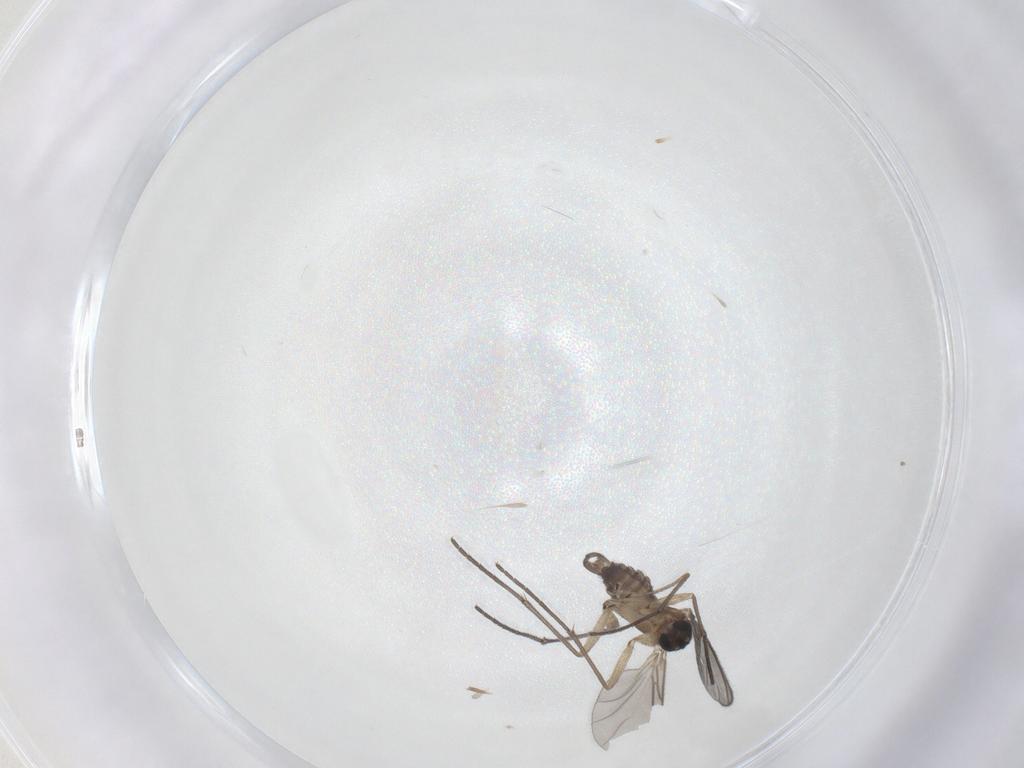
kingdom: Animalia
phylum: Arthropoda
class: Insecta
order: Diptera
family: Sciaridae
